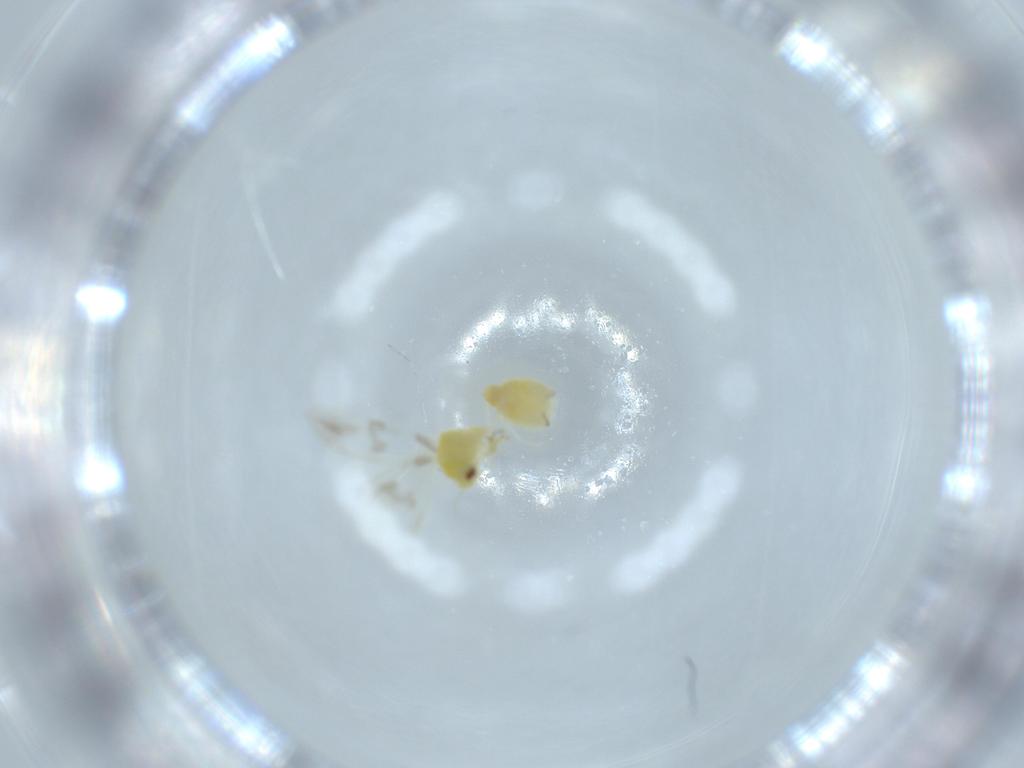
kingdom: Animalia
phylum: Arthropoda
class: Insecta
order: Hemiptera
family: Aleyrodidae
